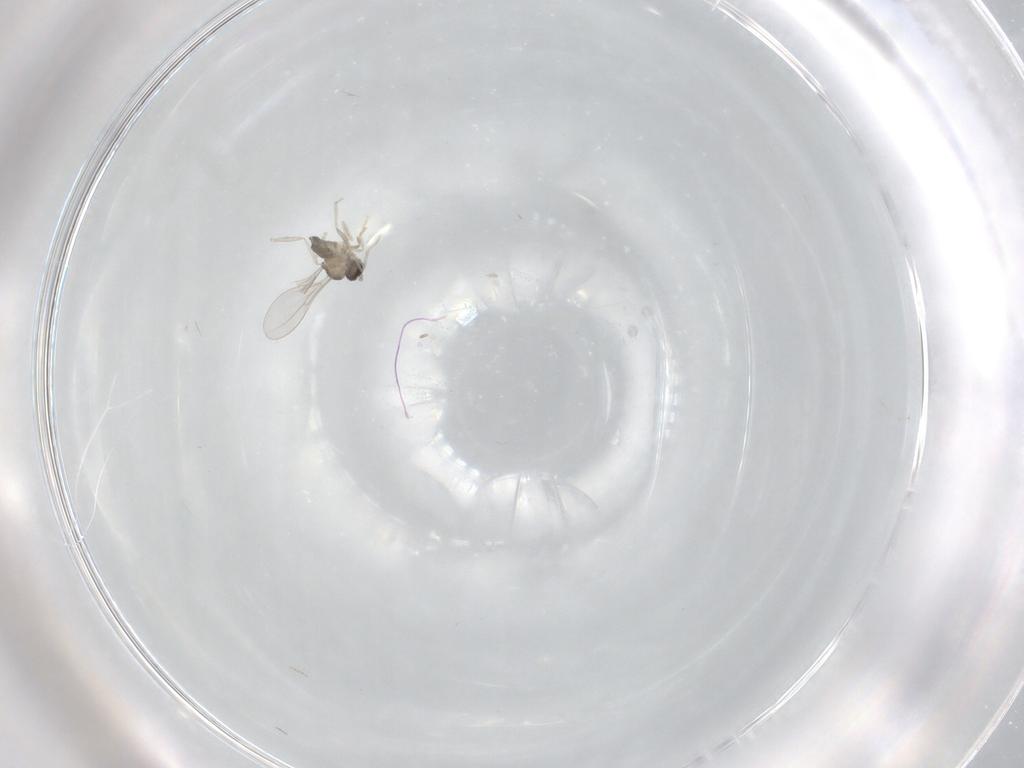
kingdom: Animalia
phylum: Arthropoda
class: Insecta
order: Diptera
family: Cecidomyiidae
